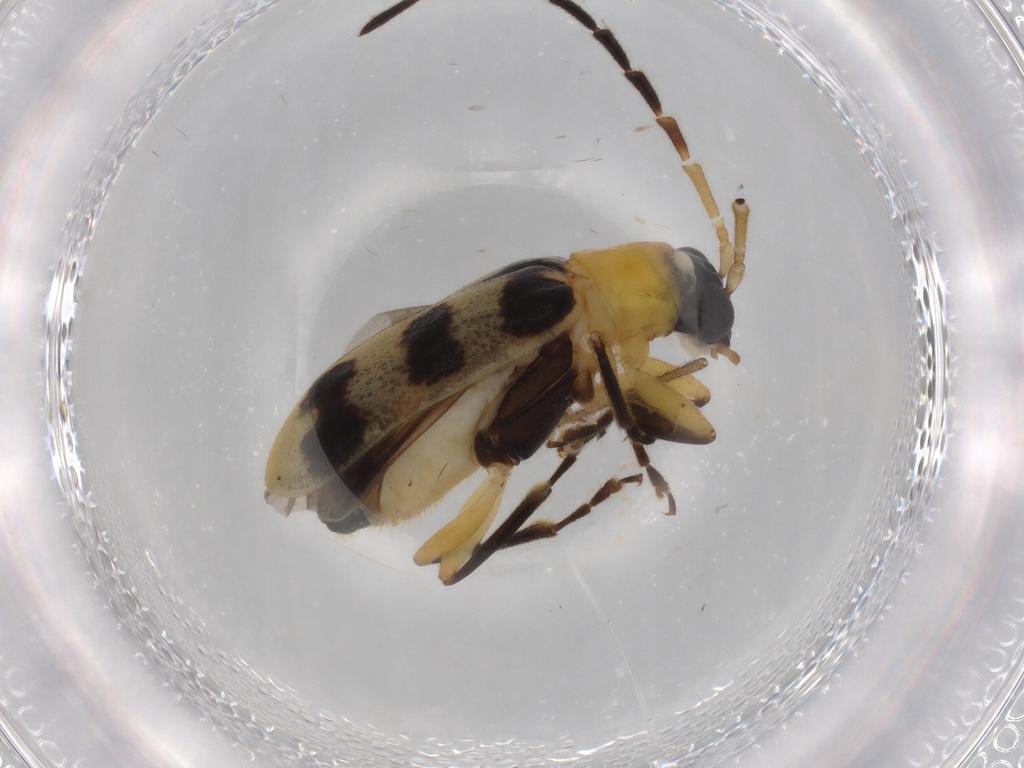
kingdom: Animalia
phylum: Arthropoda
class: Insecta
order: Coleoptera
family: Chrysomelidae
